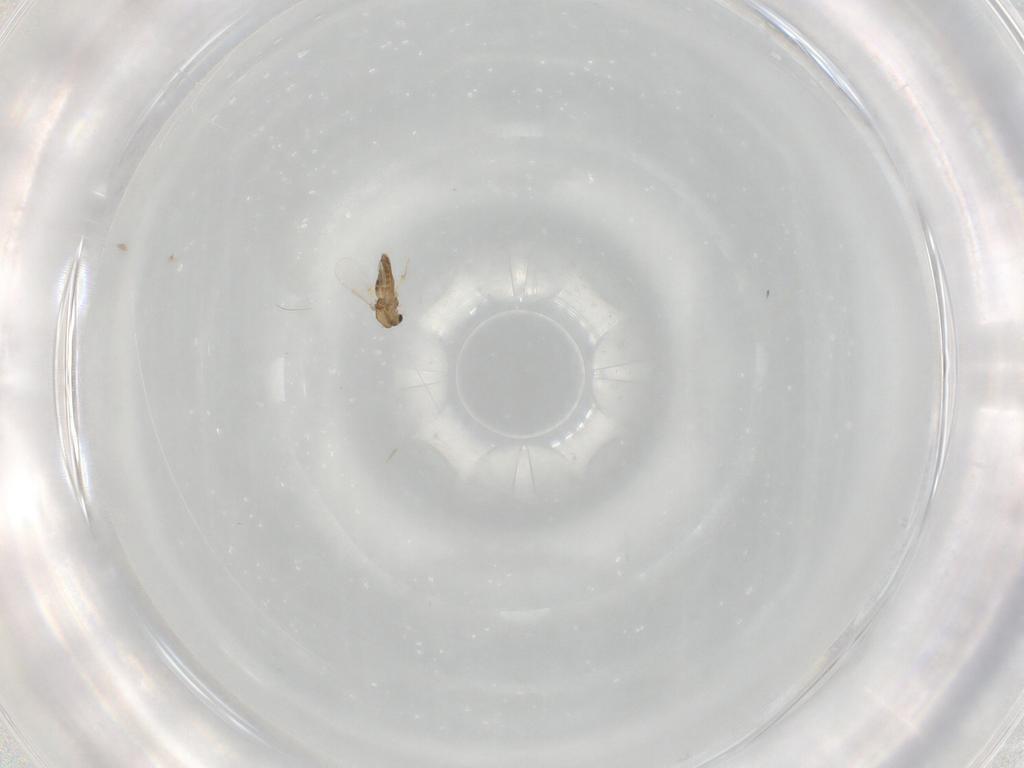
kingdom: Animalia
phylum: Arthropoda
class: Insecta
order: Diptera
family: Chironomidae
